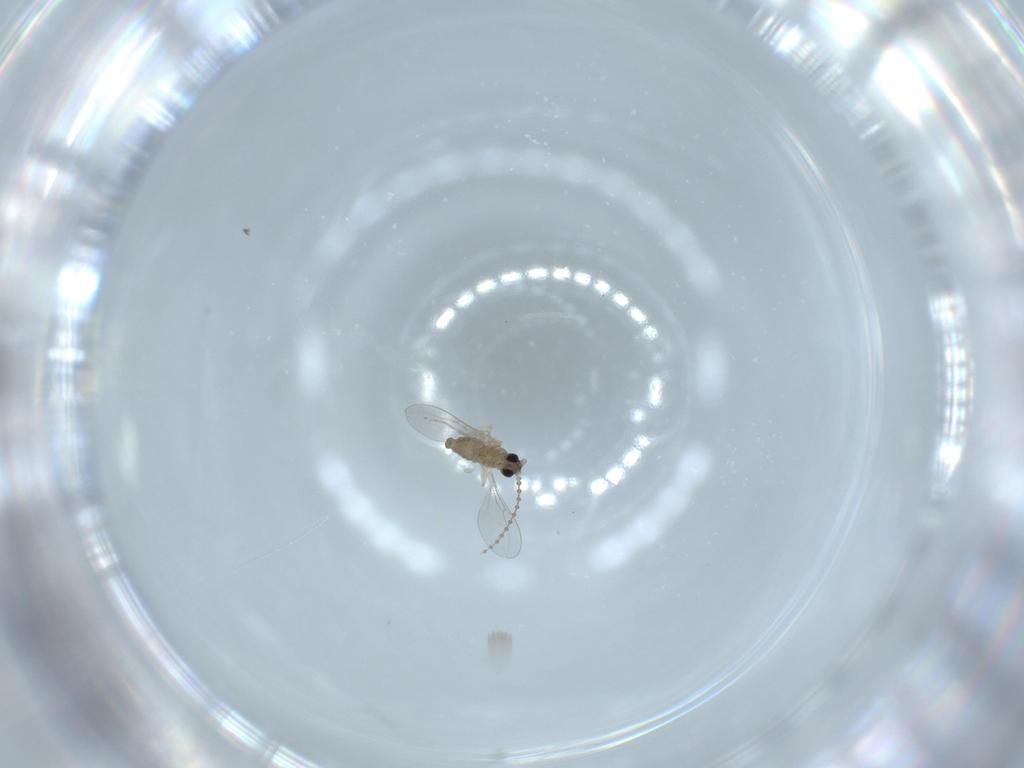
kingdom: Animalia
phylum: Arthropoda
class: Insecta
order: Diptera
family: Cecidomyiidae
